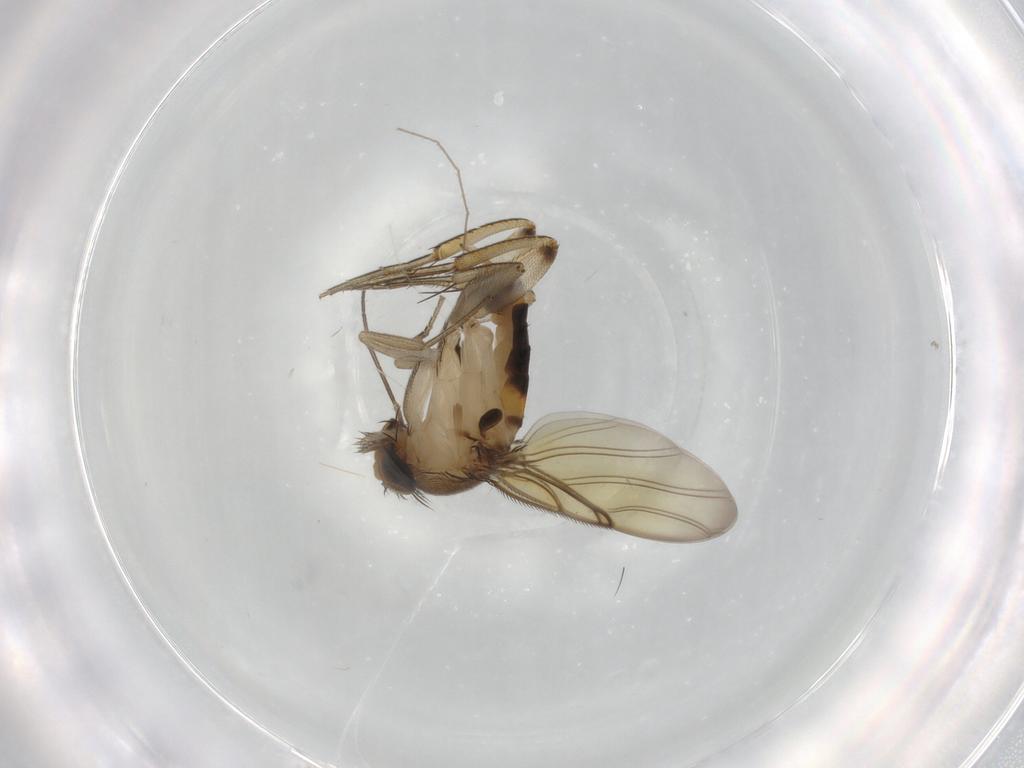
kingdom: Animalia
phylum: Arthropoda
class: Insecta
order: Diptera
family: Phoridae
